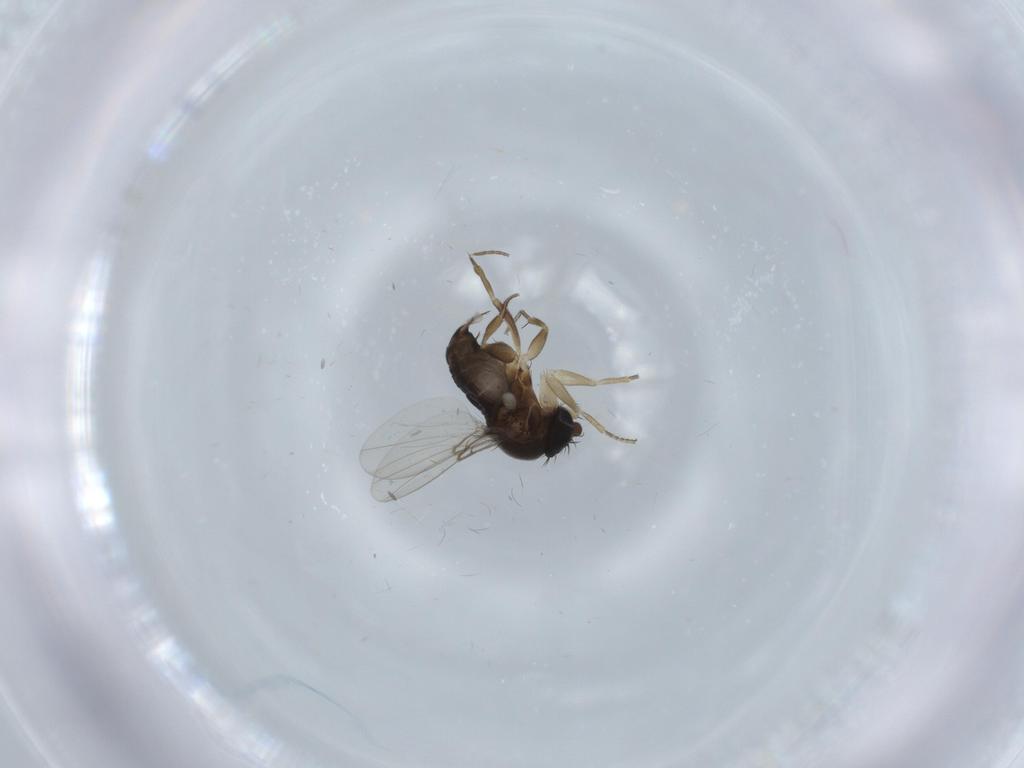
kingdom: Animalia
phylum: Arthropoda
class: Insecta
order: Diptera
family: Phoridae
